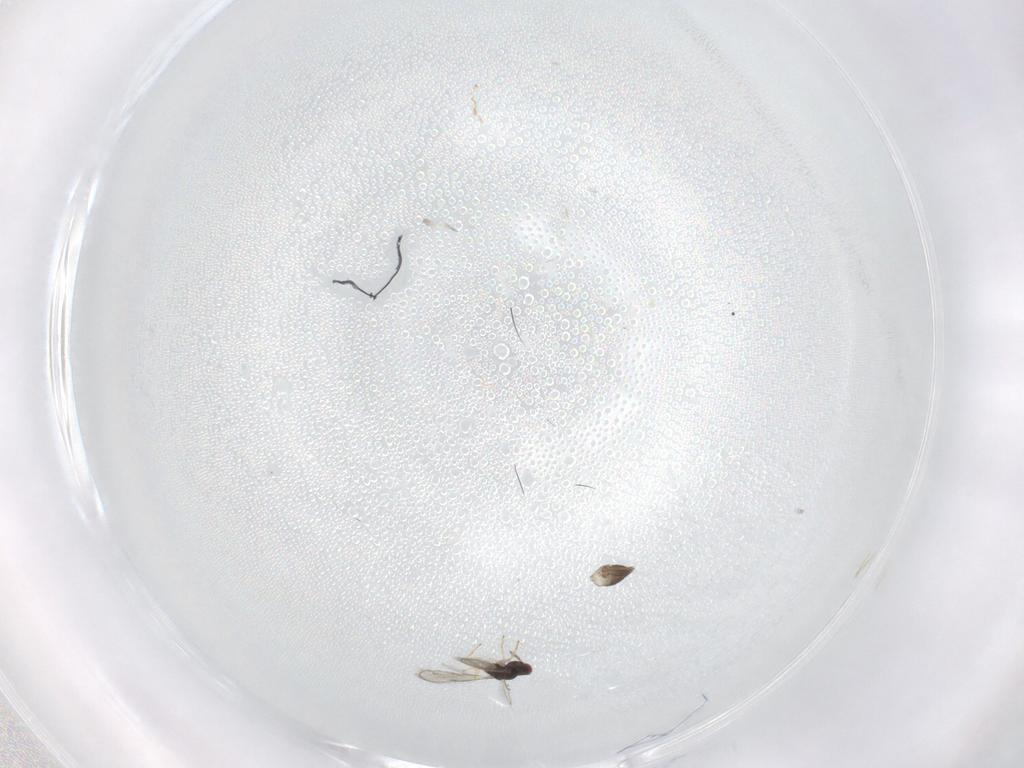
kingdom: Animalia
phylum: Arthropoda
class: Insecta
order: Hymenoptera
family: Eulophidae
